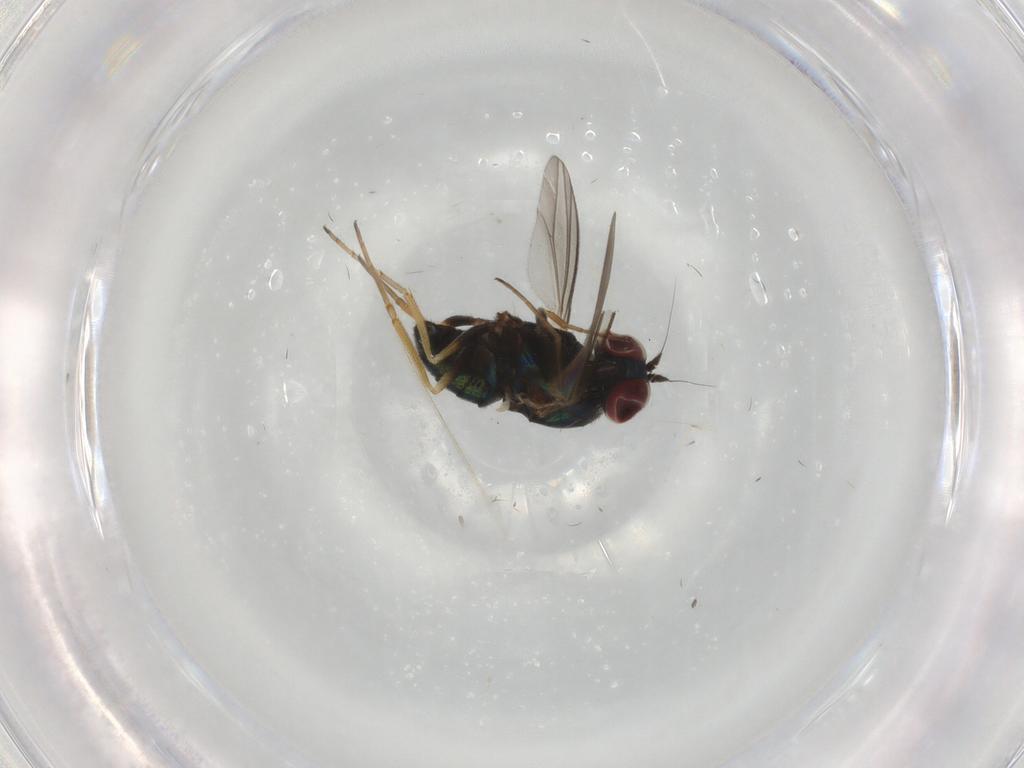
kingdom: Animalia
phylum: Arthropoda
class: Insecta
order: Diptera
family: Dolichopodidae
